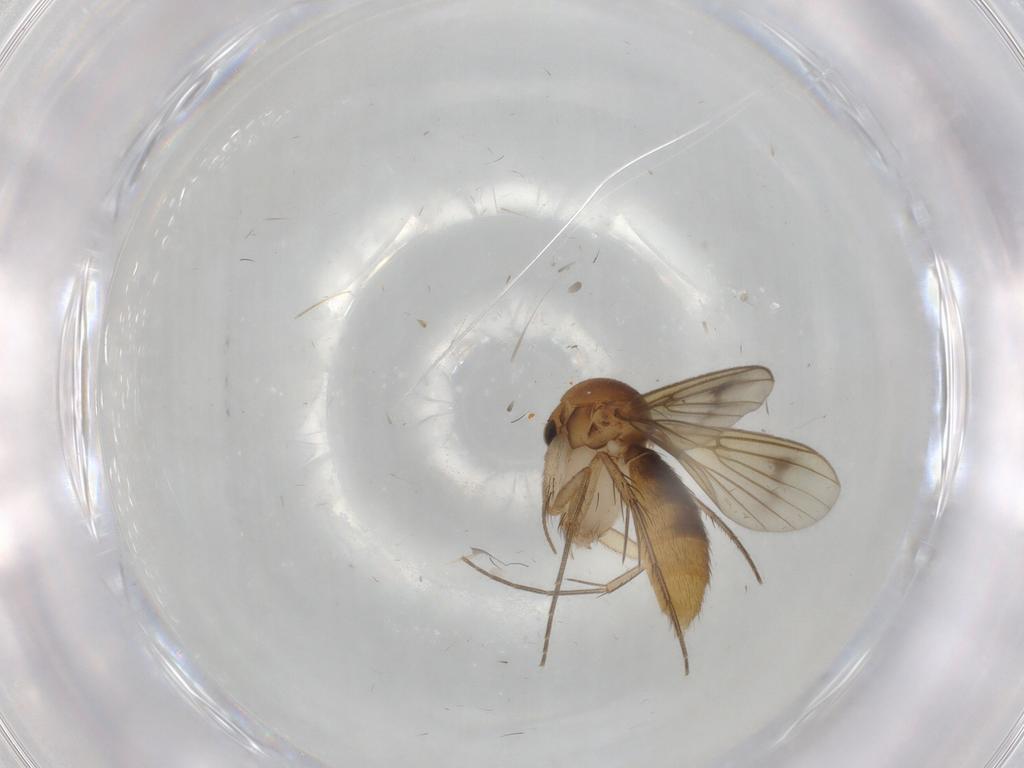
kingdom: Animalia
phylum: Arthropoda
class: Insecta
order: Diptera
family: Mycetophilidae
